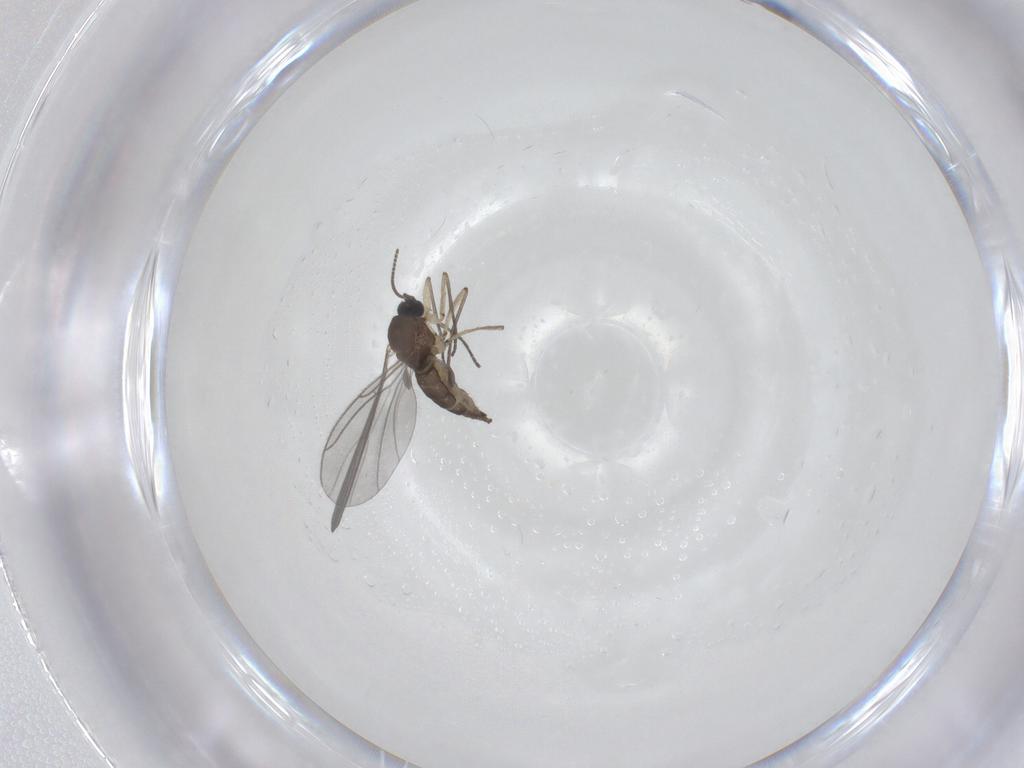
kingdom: Animalia
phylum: Arthropoda
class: Insecta
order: Diptera
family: Sciaridae
